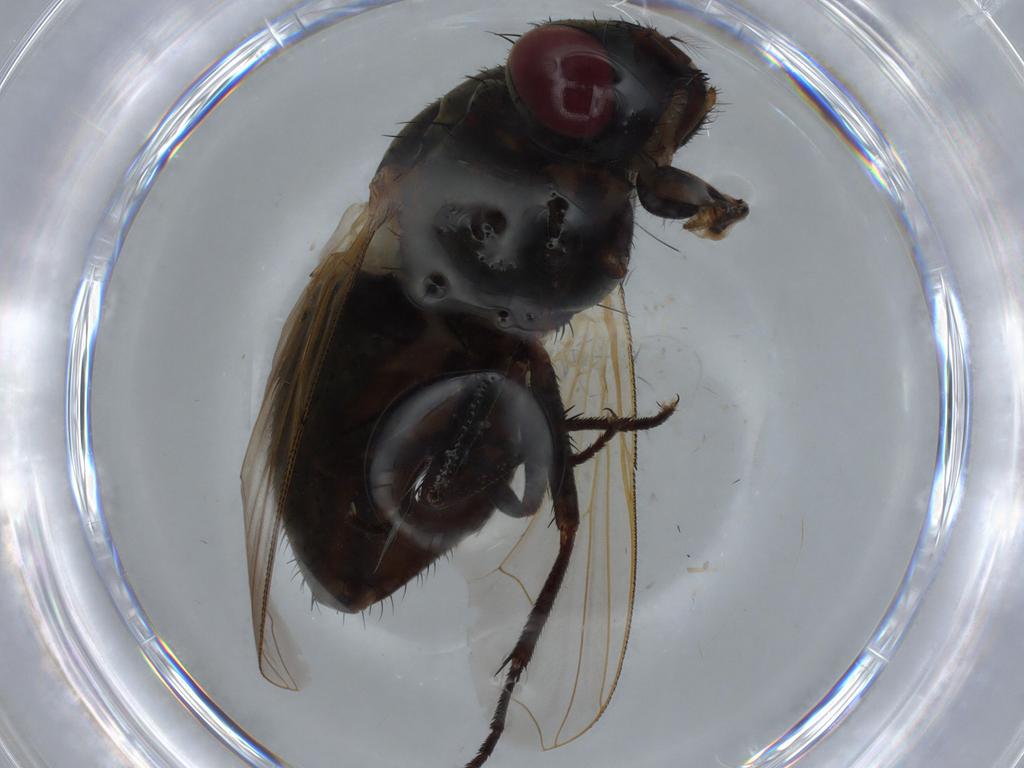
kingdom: Animalia
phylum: Arthropoda
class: Insecta
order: Diptera
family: Agromyzidae
